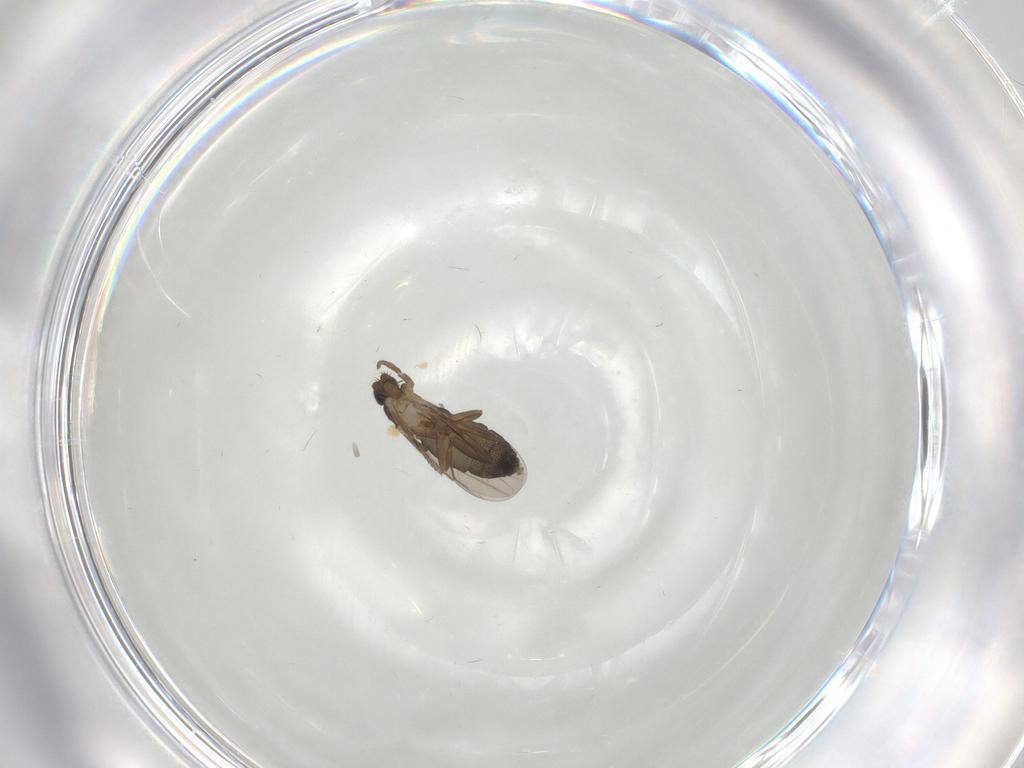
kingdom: Animalia
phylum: Arthropoda
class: Insecta
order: Diptera
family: Psychodidae
